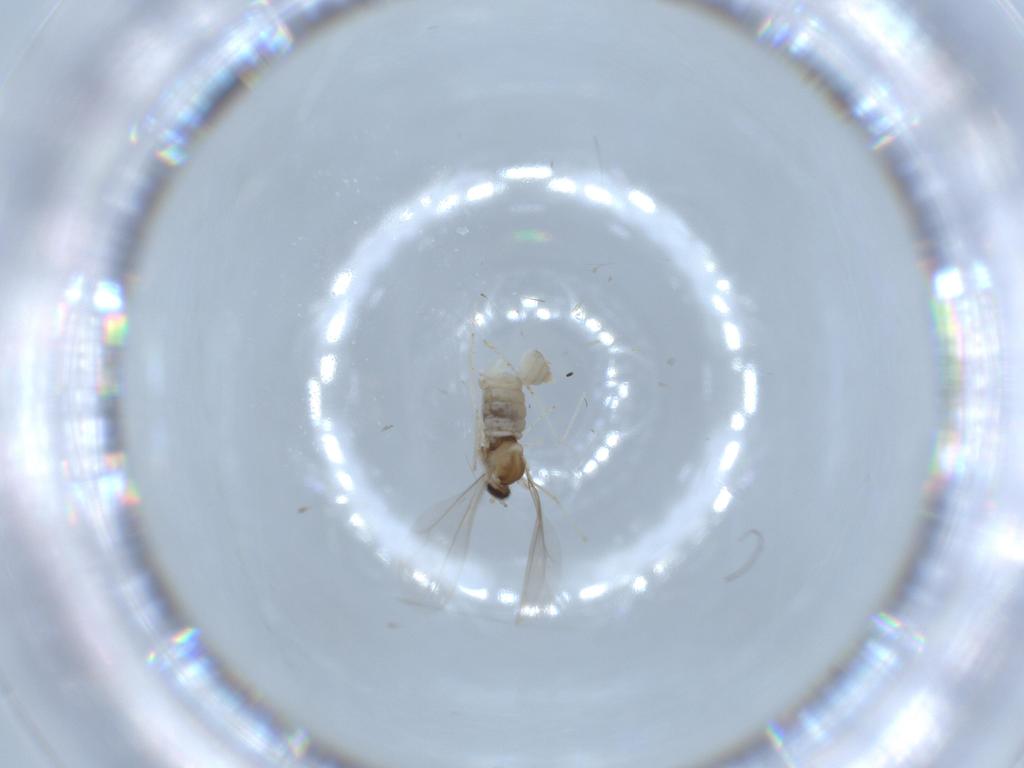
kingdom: Animalia
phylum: Arthropoda
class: Insecta
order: Diptera
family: Cecidomyiidae
